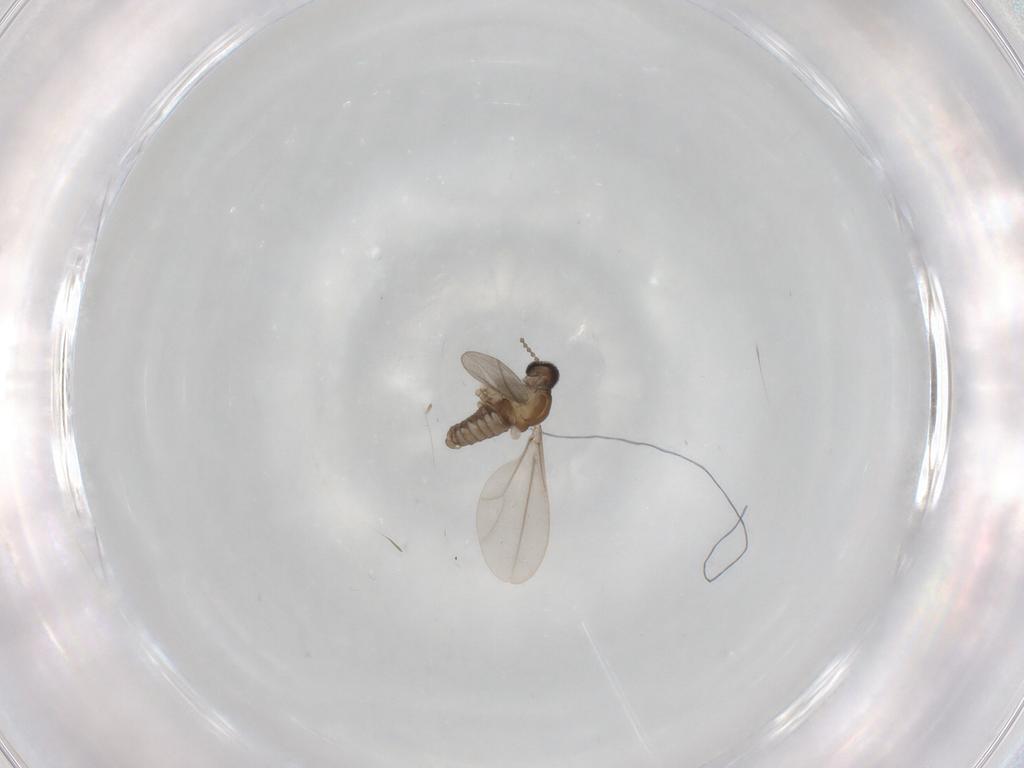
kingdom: Animalia
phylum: Arthropoda
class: Insecta
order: Diptera
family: Cecidomyiidae
